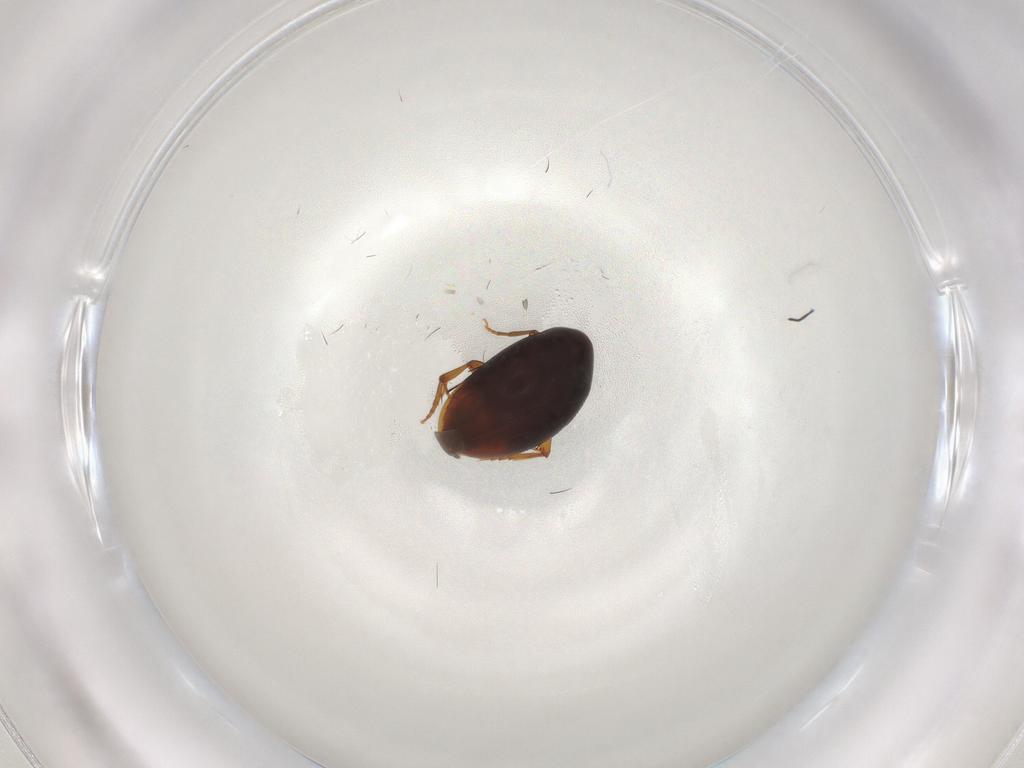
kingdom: Animalia
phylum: Arthropoda
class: Insecta
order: Coleoptera
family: Melandryidae
